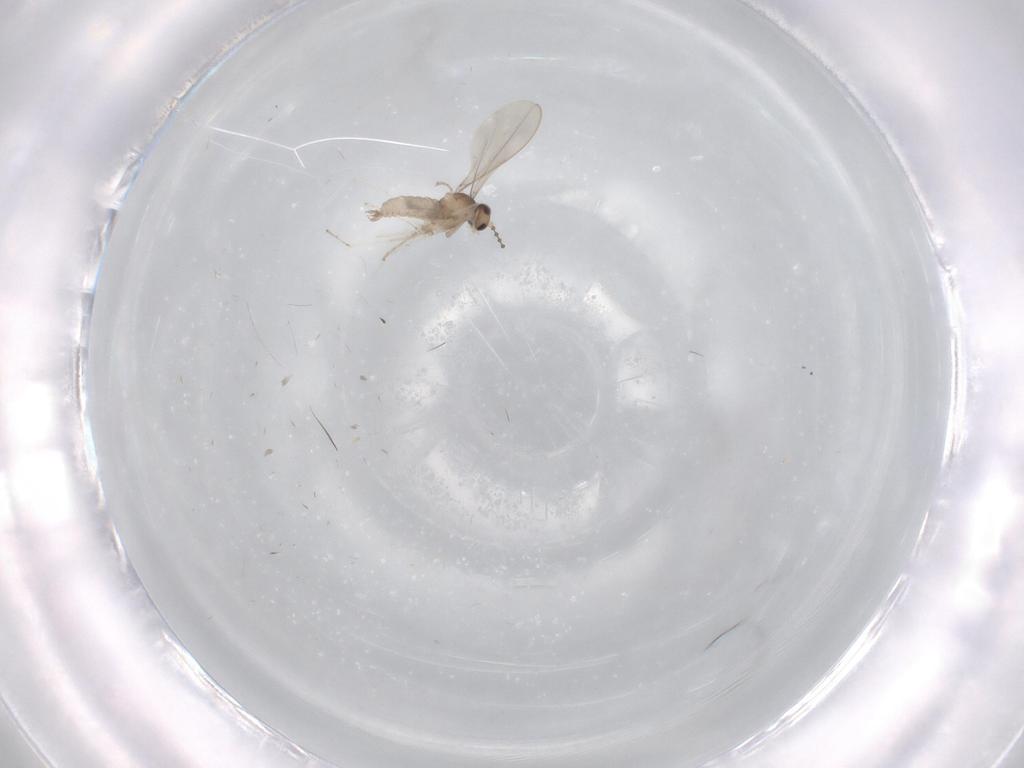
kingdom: Animalia
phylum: Arthropoda
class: Insecta
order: Diptera
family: Cecidomyiidae
